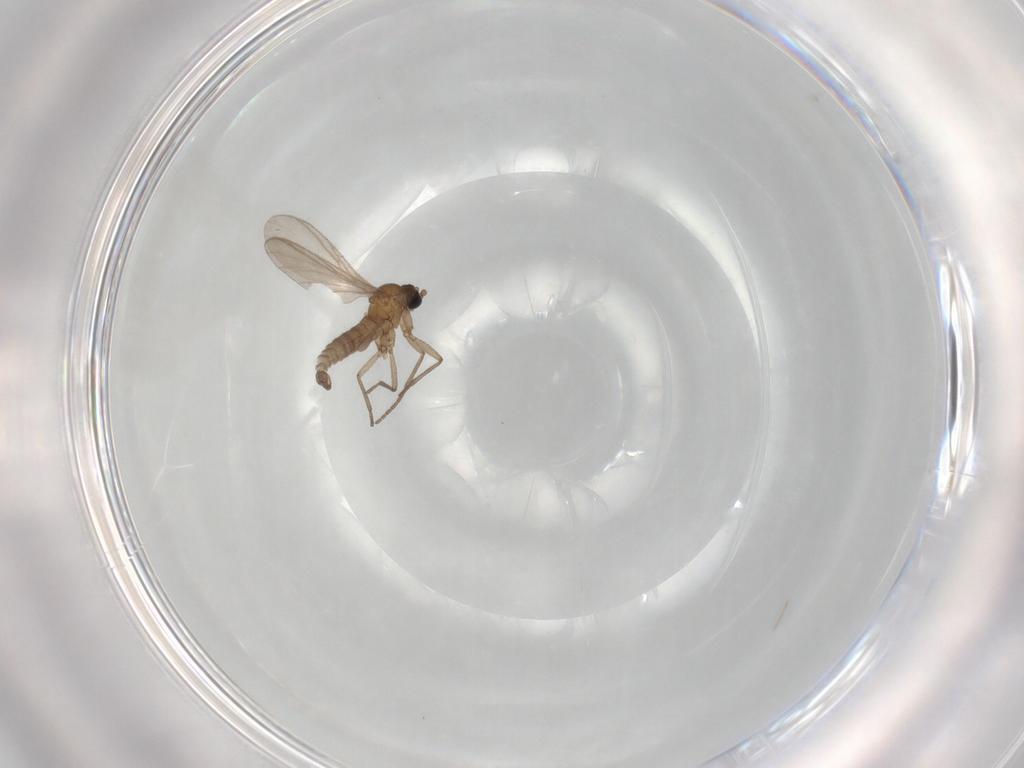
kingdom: Animalia
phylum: Arthropoda
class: Insecta
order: Diptera
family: Sciaridae
